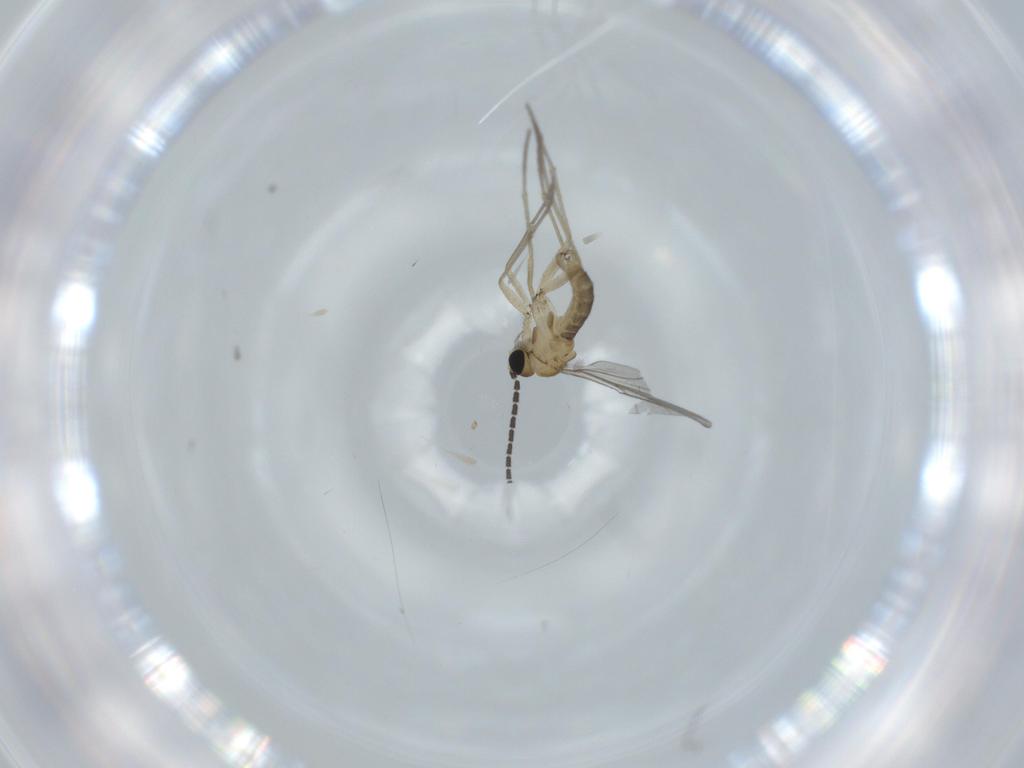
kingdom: Animalia
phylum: Arthropoda
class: Insecta
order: Diptera
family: Sciaridae
